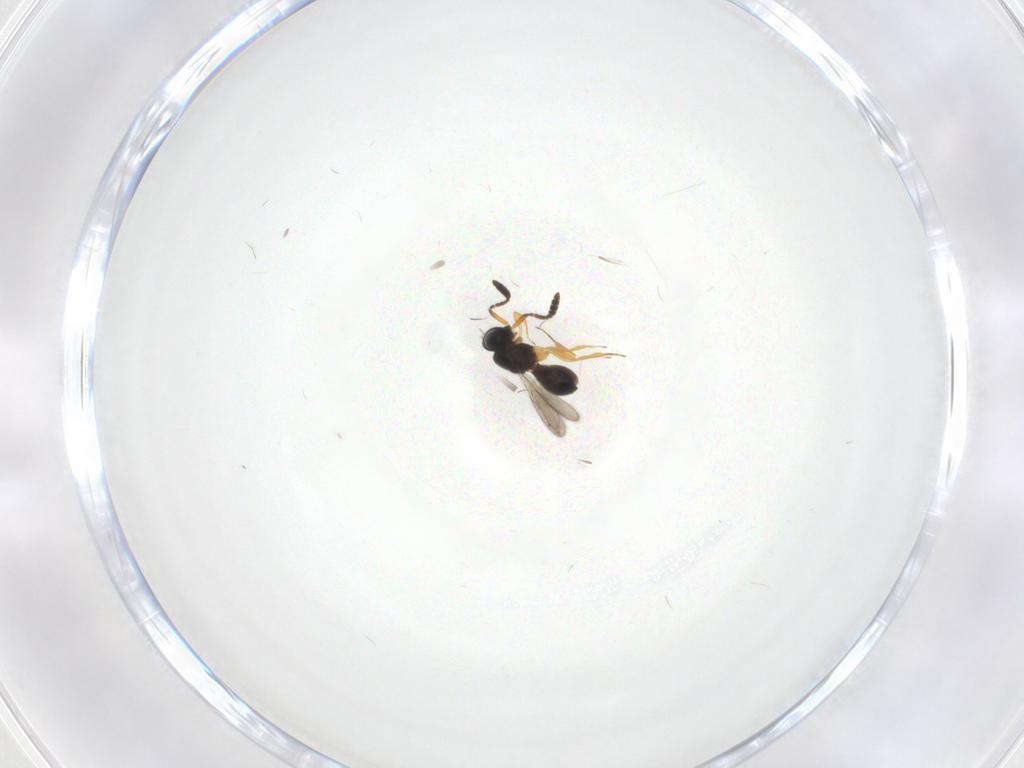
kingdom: Animalia
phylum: Arthropoda
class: Insecta
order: Hymenoptera
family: Scelionidae
